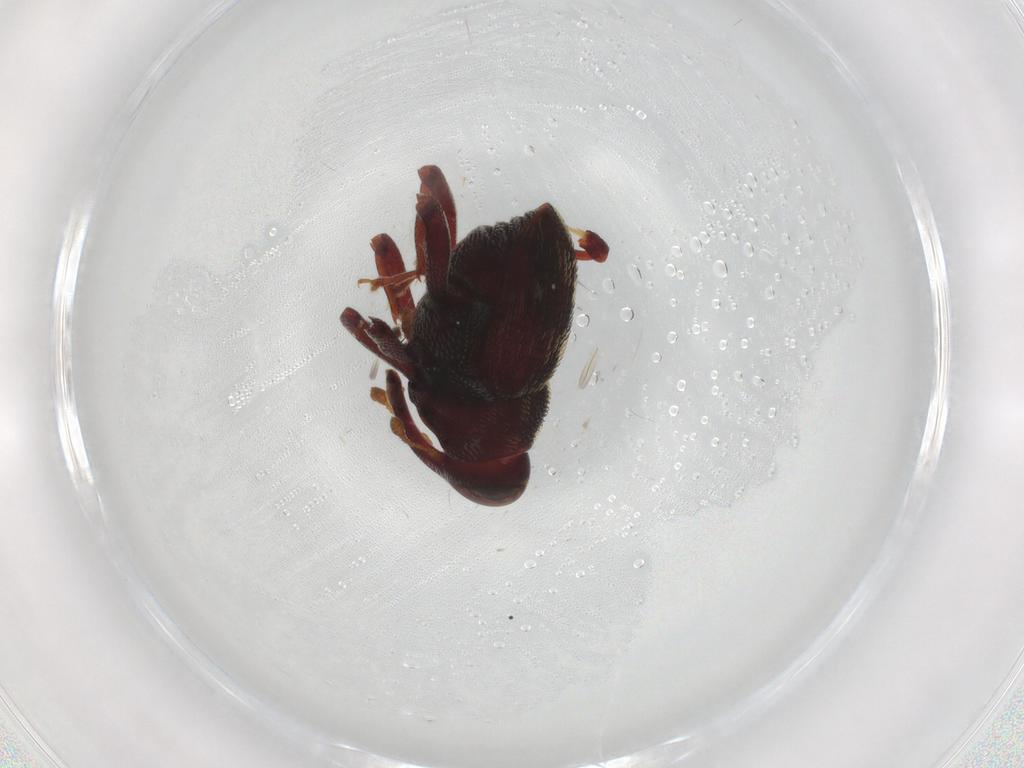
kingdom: Animalia
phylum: Arthropoda
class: Insecta
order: Coleoptera
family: Curculionidae
